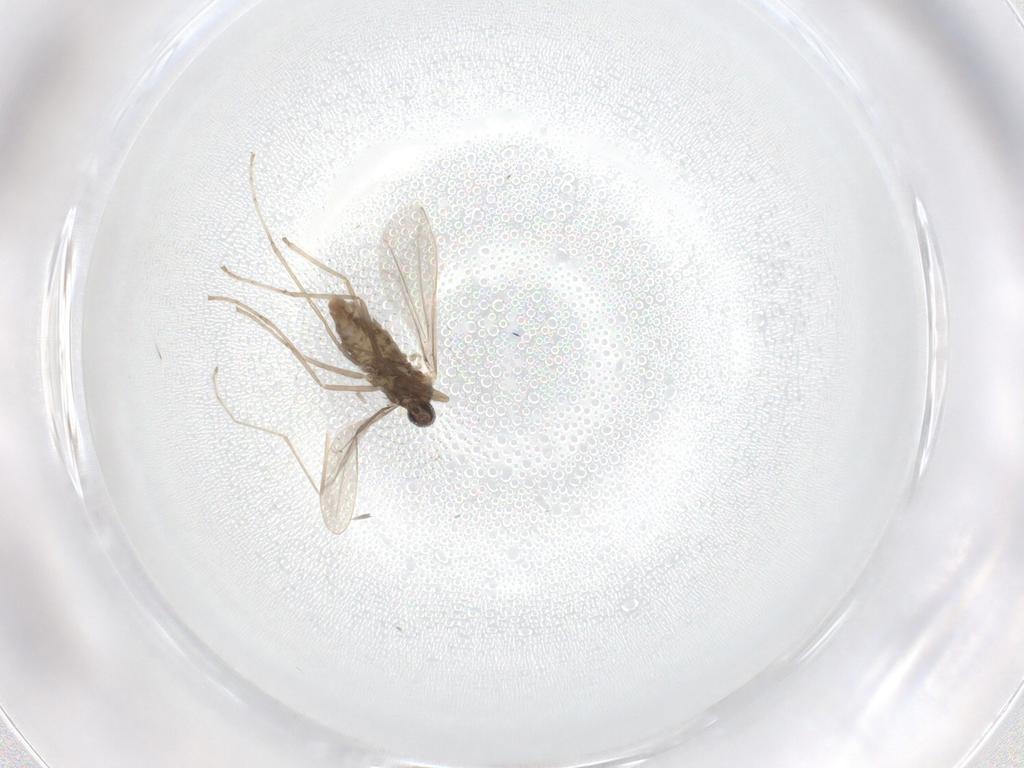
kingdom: Animalia
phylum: Arthropoda
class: Insecta
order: Diptera
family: Cecidomyiidae
